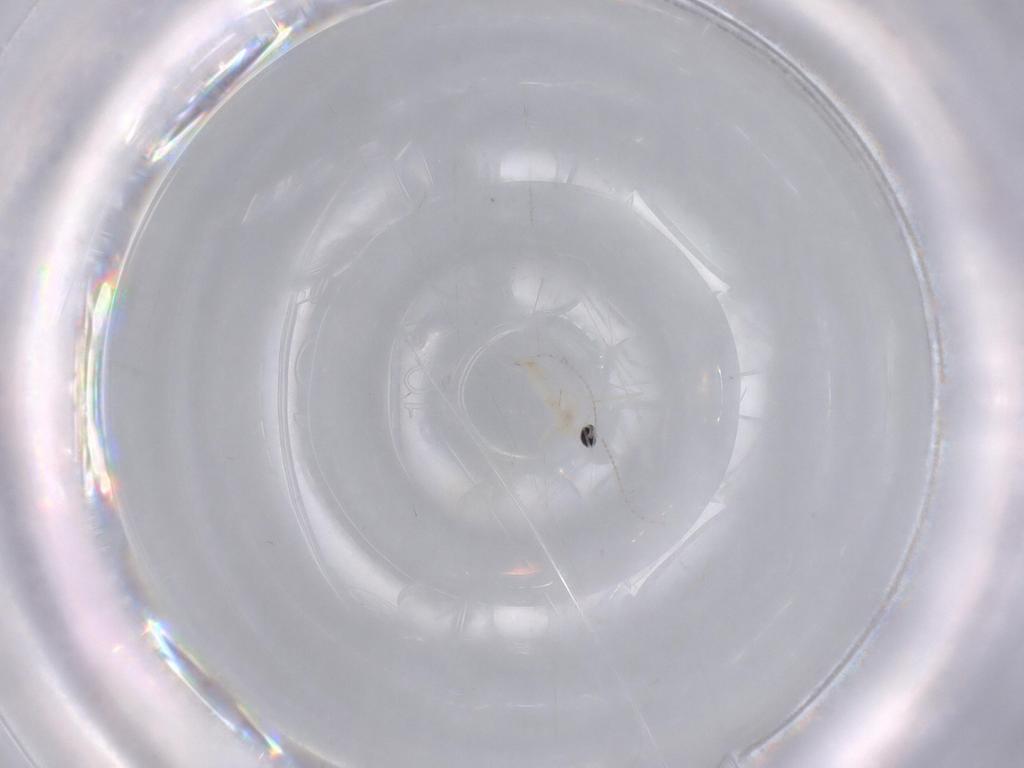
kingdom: Animalia
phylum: Arthropoda
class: Insecta
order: Diptera
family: Cecidomyiidae
